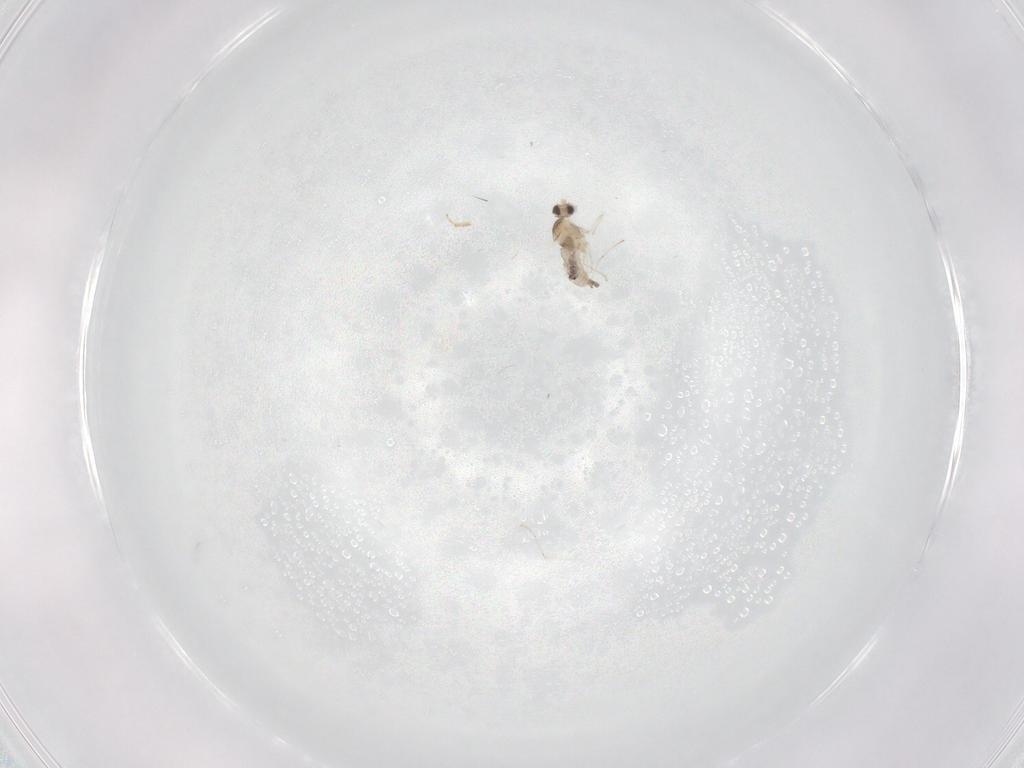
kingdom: Animalia
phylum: Arthropoda
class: Insecta
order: Diptera
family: Cecidomyiidae
